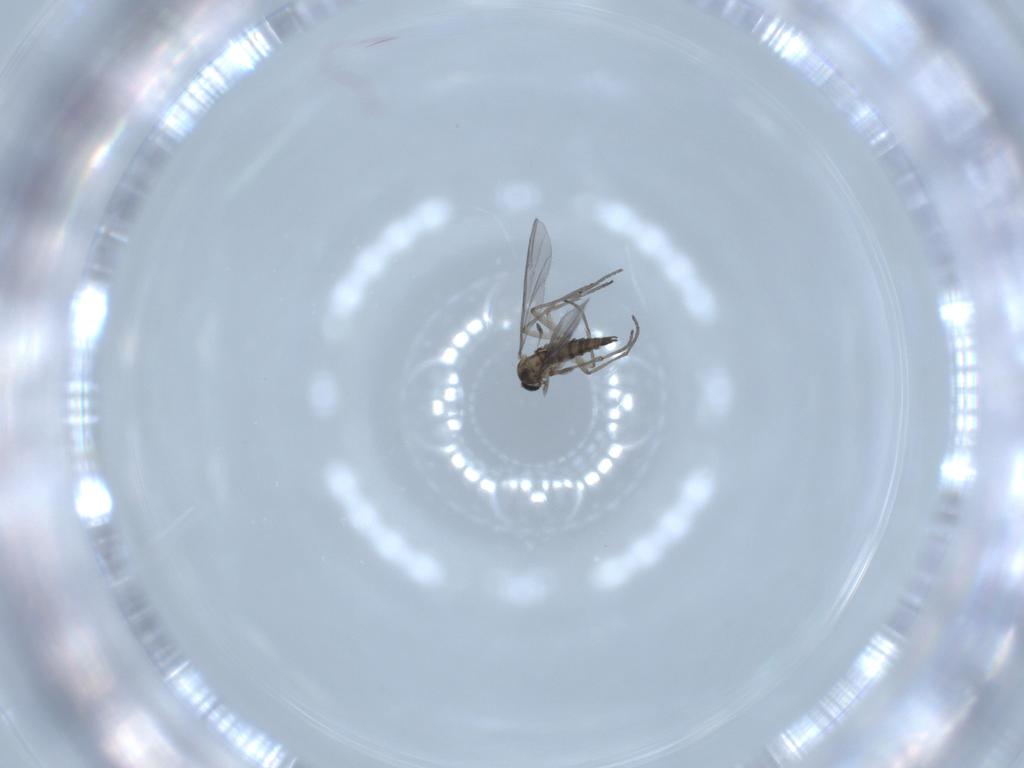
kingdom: Animalia
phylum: Arthropoda
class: Insecta
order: Diptera
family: Sciaridae
